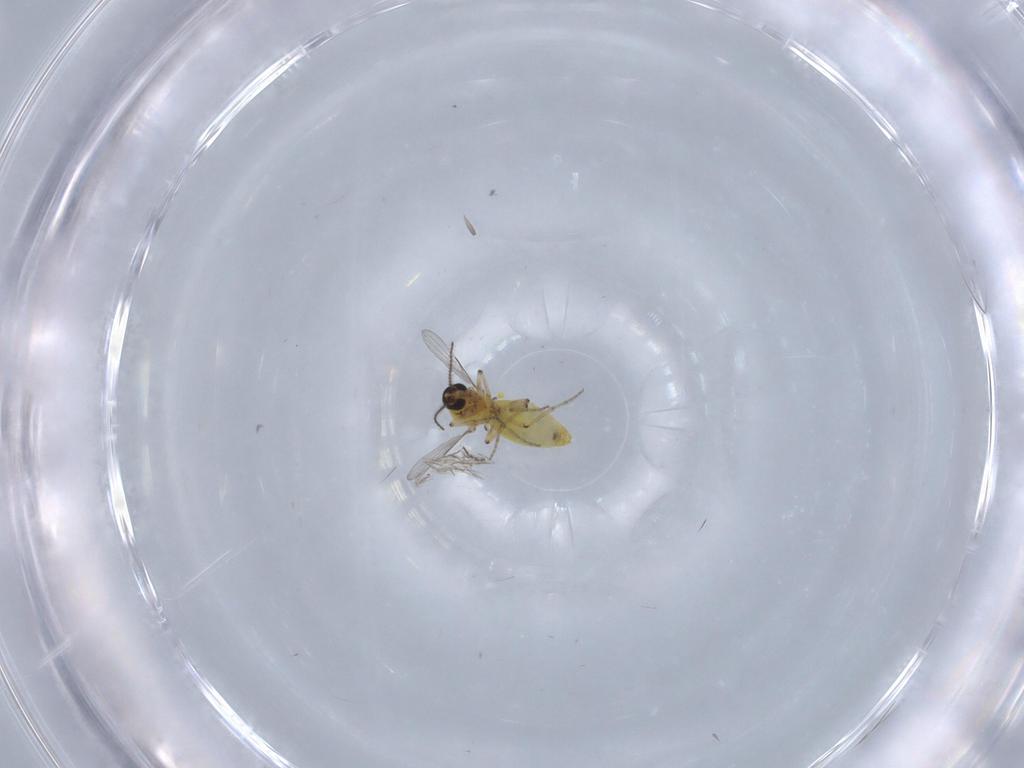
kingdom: Animalia
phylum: Arthropoda
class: Insecta
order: Diptera
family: Ceratopogonidae
